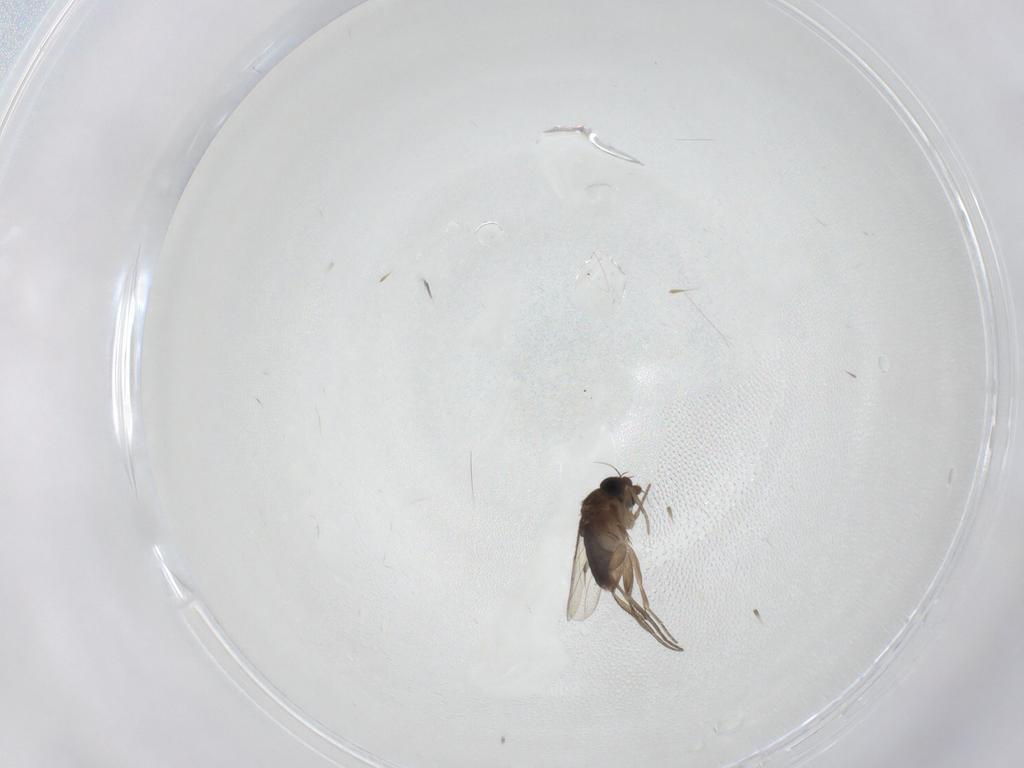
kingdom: Animalia
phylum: Arthropoda
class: Insecta
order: Diptera
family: Phoridae
